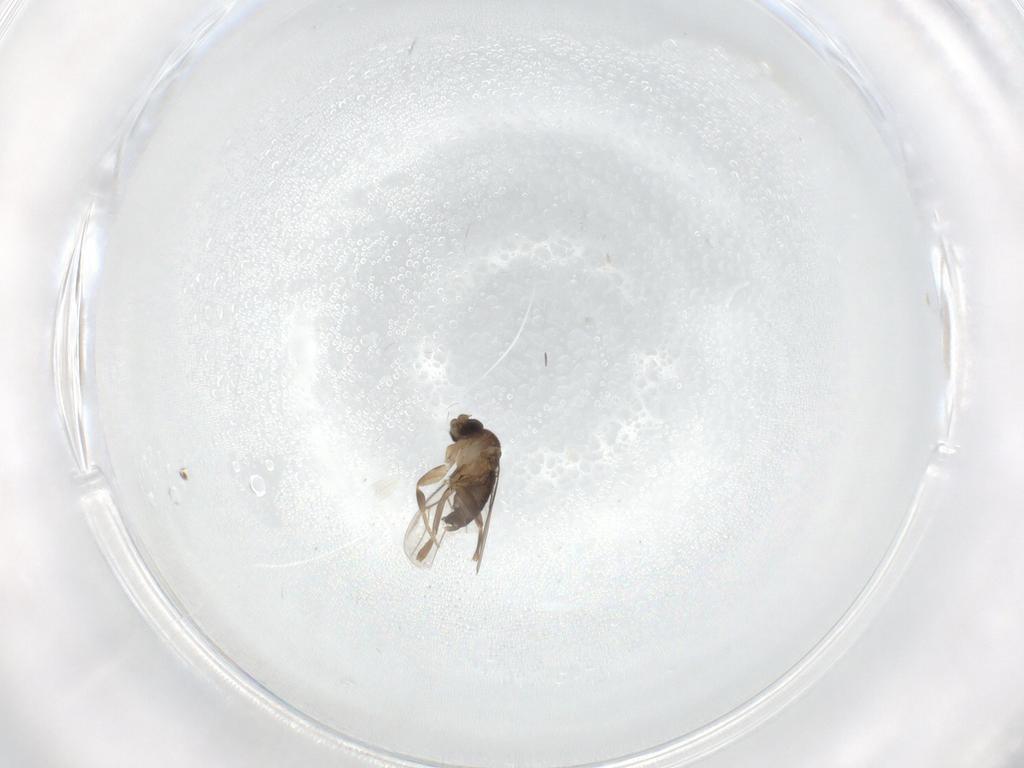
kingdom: Animalia
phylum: Arthropoda
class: Insecta
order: Diptera
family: Phoridae
